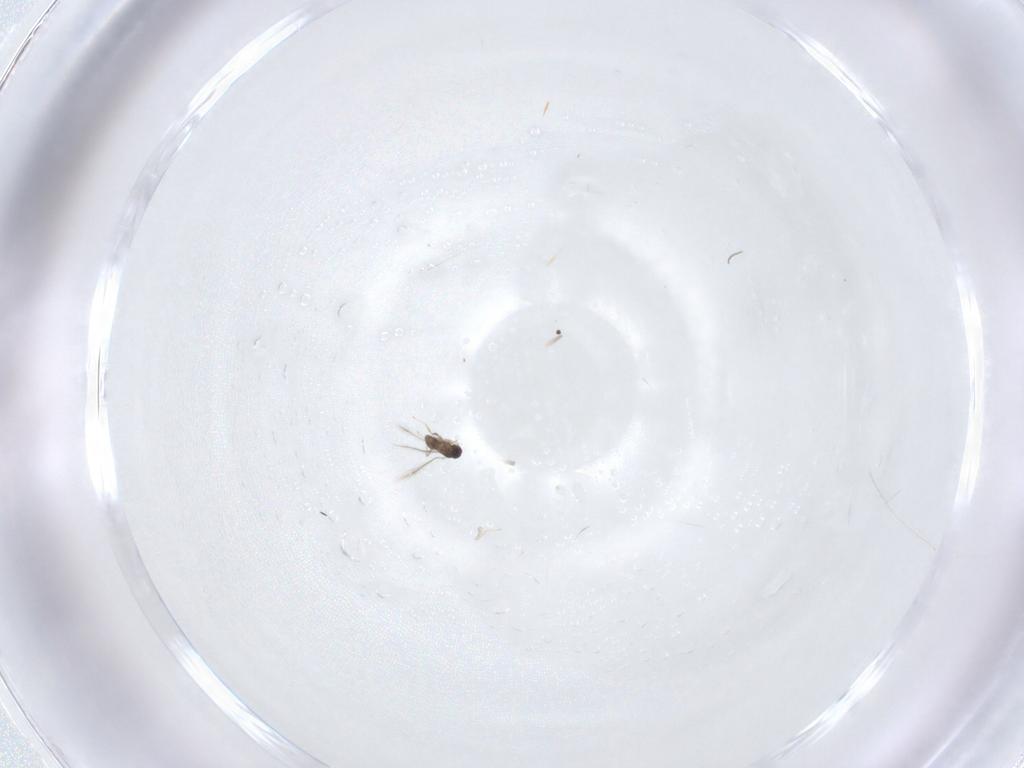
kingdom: Animalia
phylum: Arthropoda
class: Insecta
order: Hymenoptera
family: Mymaridae
